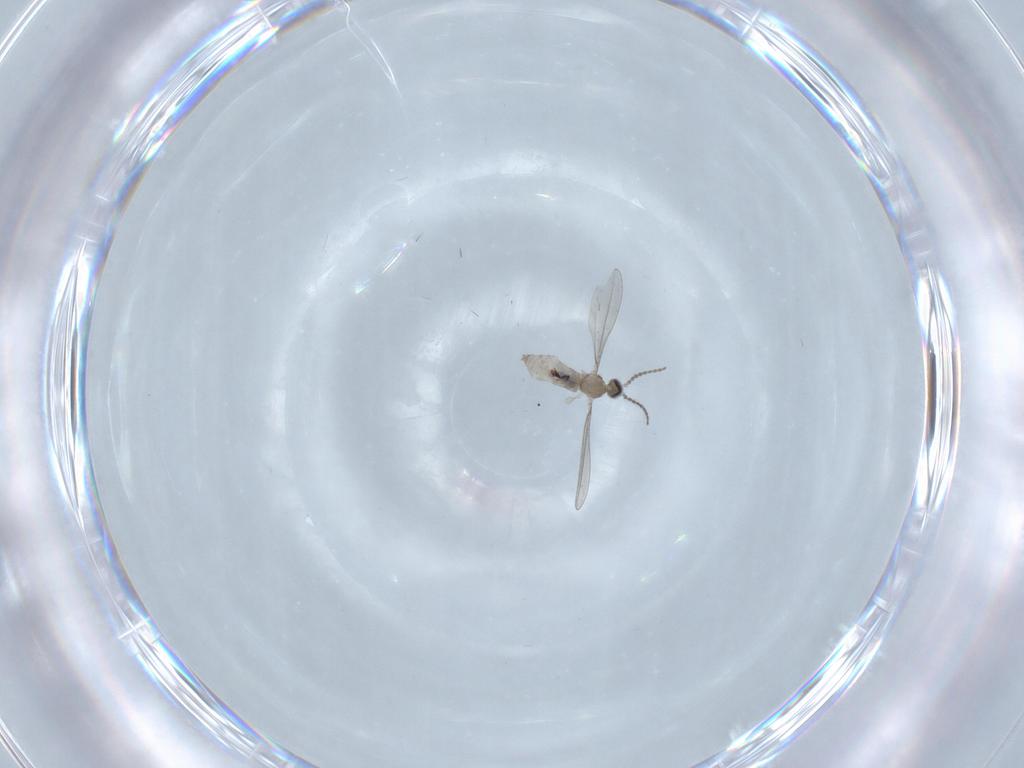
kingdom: Animalia
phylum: Arthropoda
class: Insecta
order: Diptera
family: Cecidomyiidae
